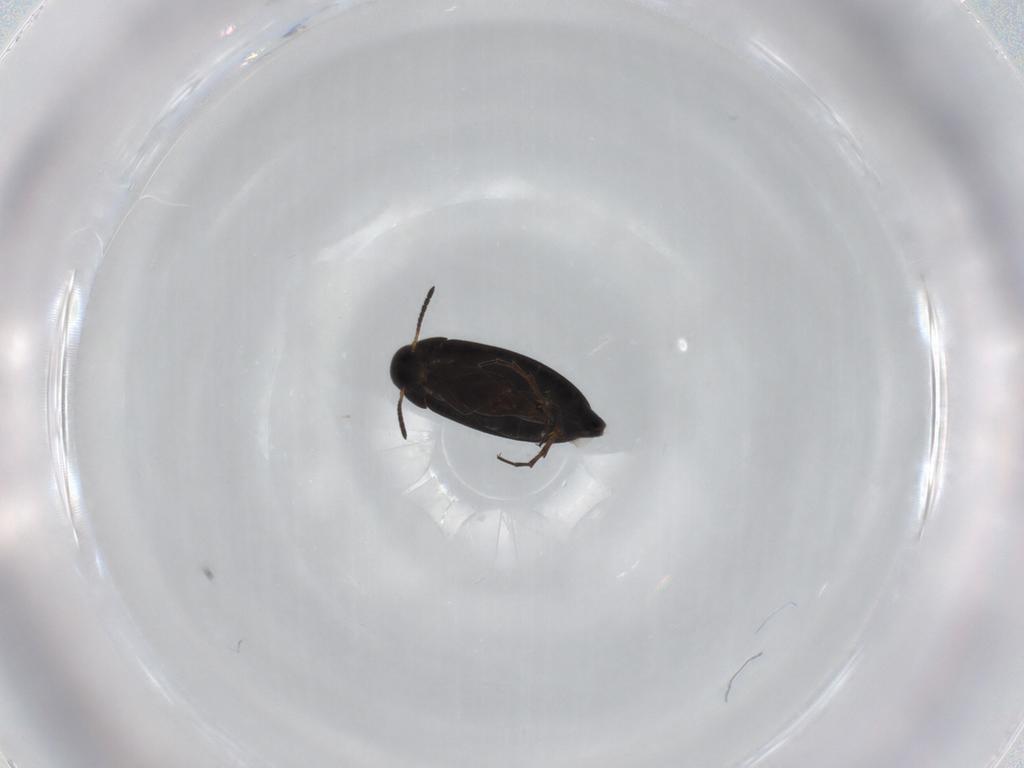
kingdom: Animalia
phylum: Arthropoda
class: Insecta
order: Coleoptera
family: Scraptiidae
